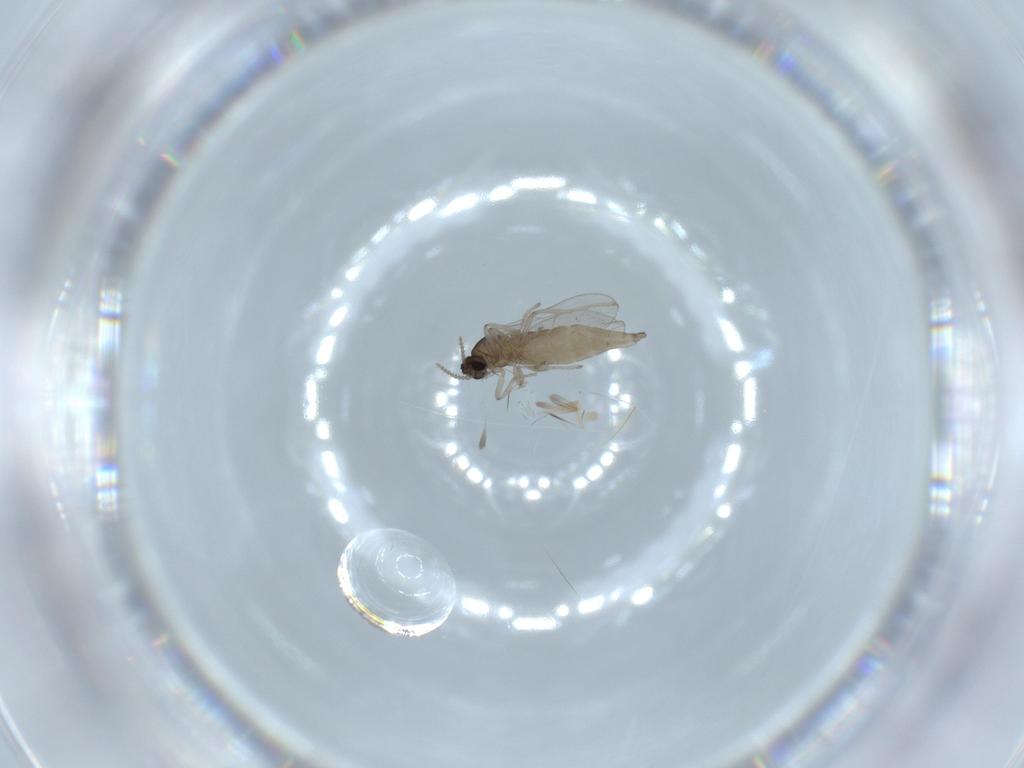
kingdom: Animalia
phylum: Arthropoda
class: Insecta
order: Diptera
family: Cecidomyiidae
